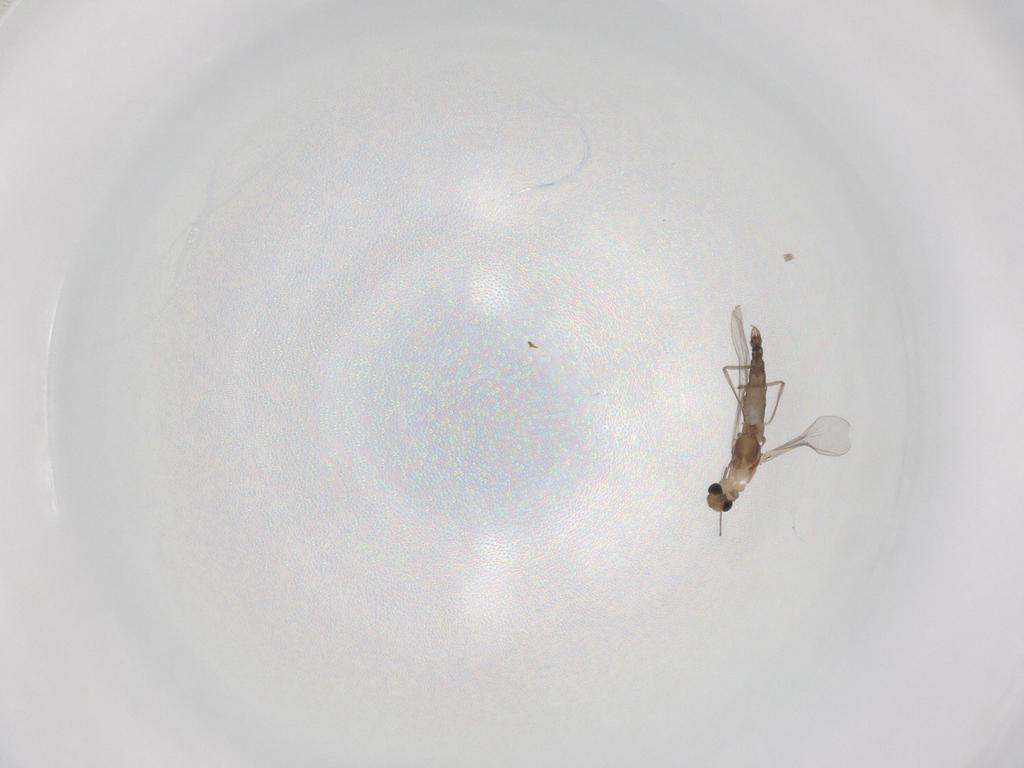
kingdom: Animalia
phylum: Arthropoda
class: Insecta
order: Diptera
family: Chironomidae
